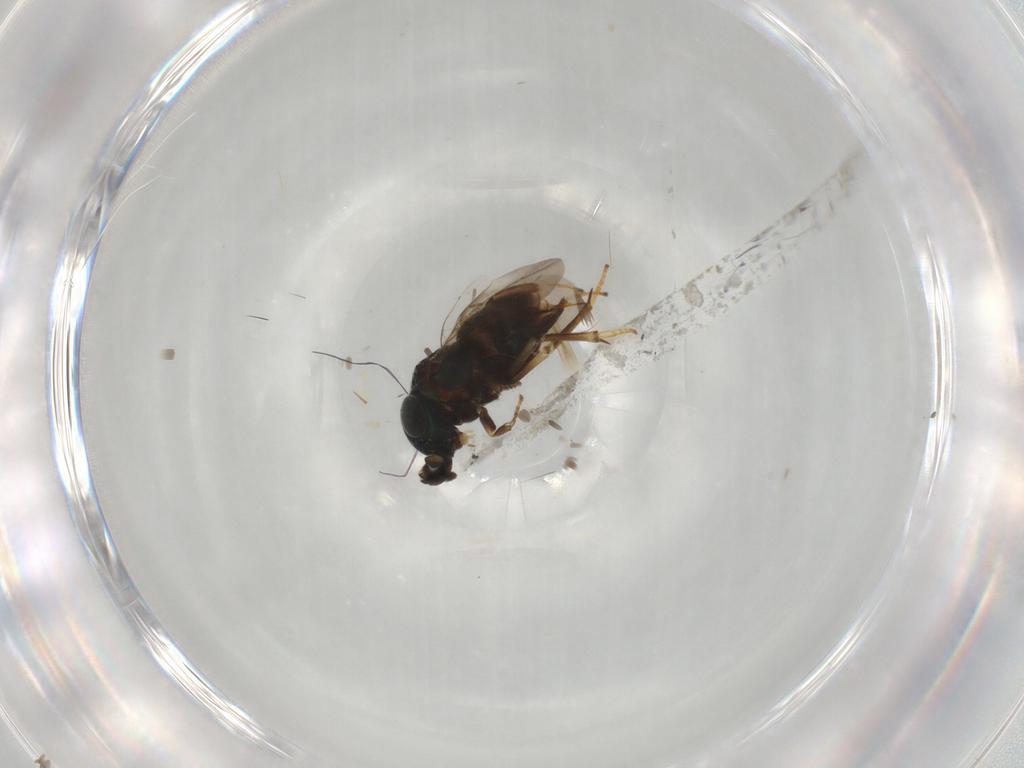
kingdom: Animalia
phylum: Arthropoda
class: Insecta
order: Hymenoptera
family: Encyrtidae
